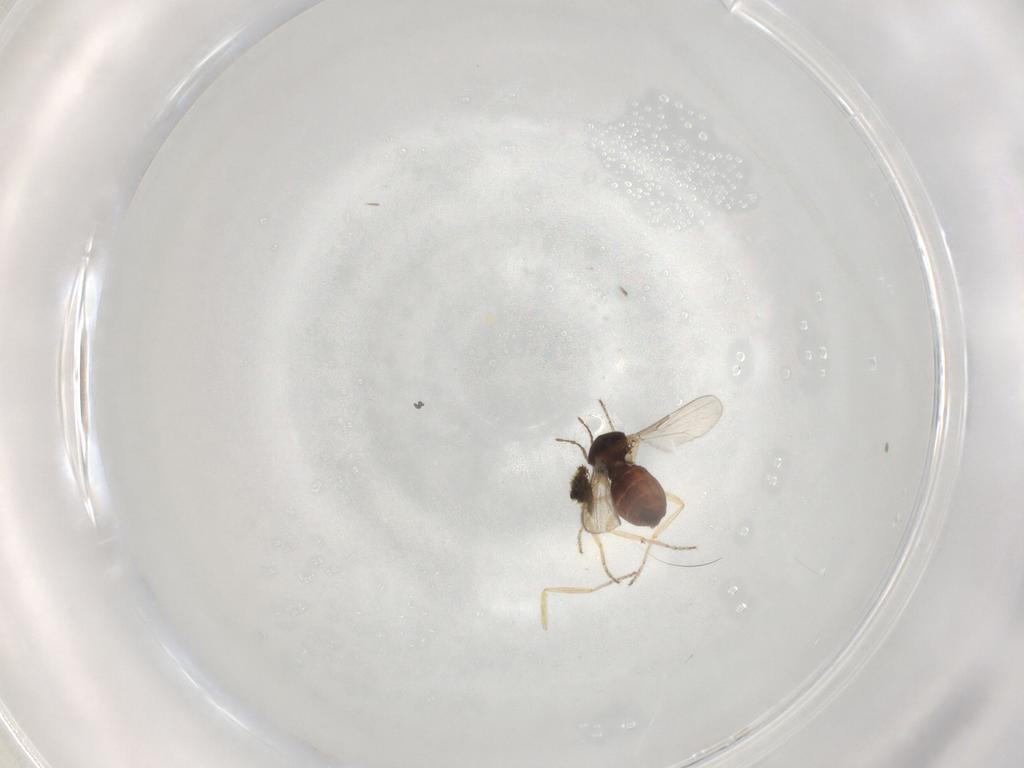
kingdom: Animalia
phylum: Arthropoda
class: Insecta
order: Diptera
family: Ceratopogonidae
